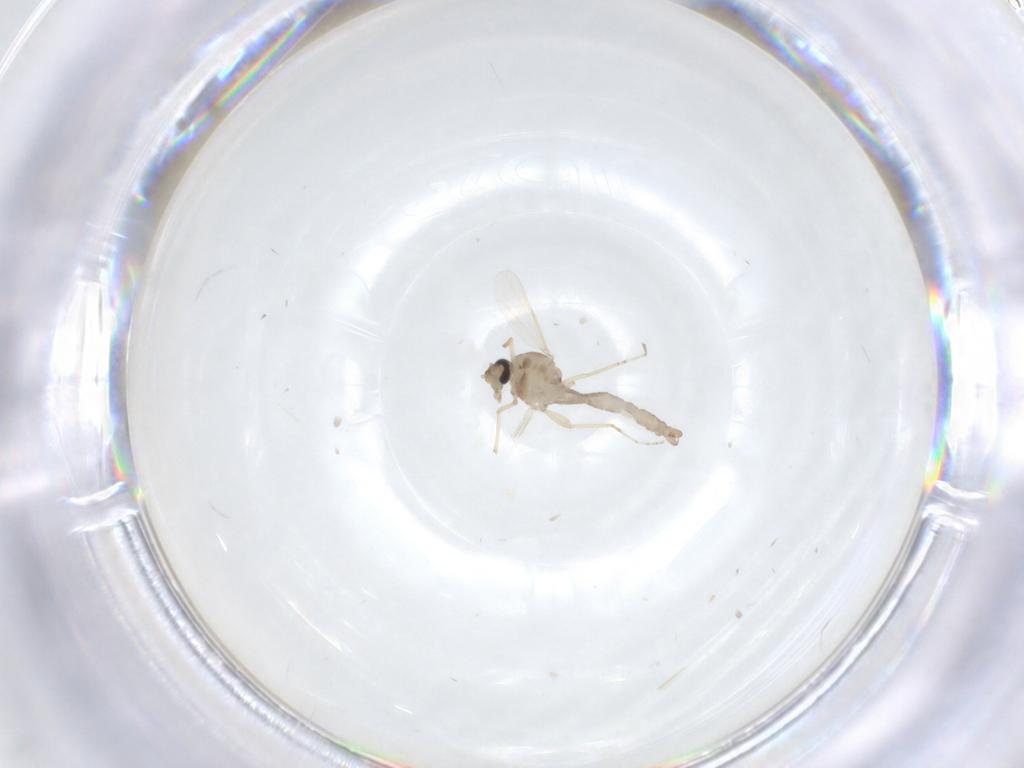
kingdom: Animalia
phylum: Arthropoda
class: Insecta
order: Diptera
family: Ceratopogonidae
